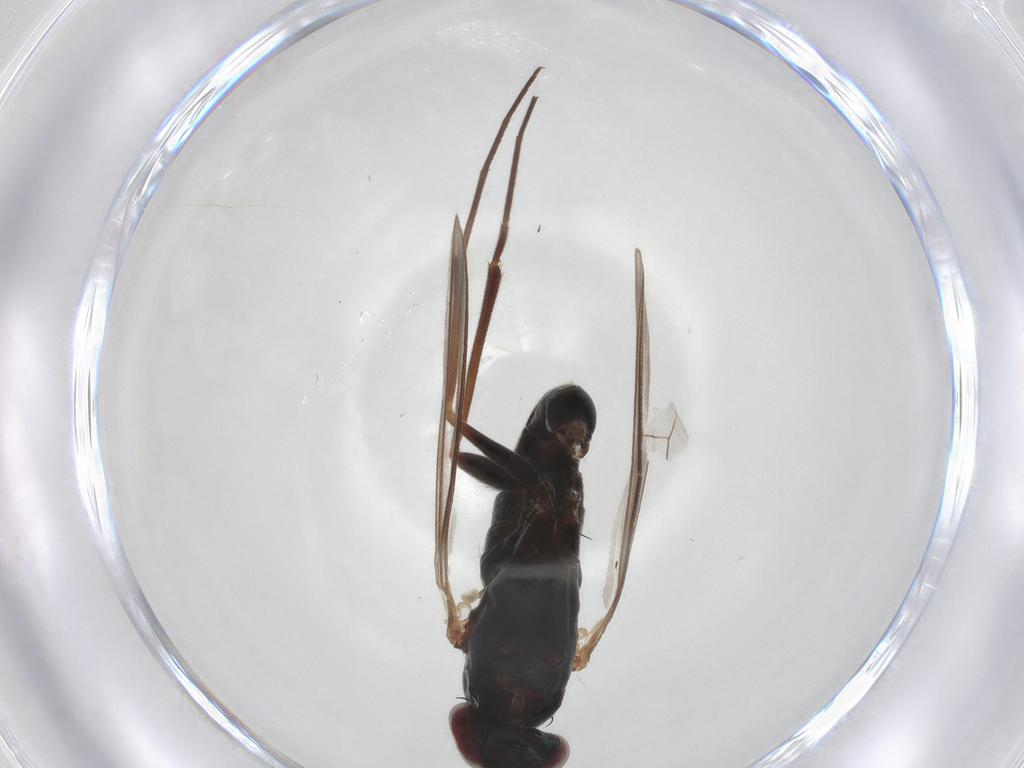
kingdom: Animalia
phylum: Arthropoda
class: Insecta
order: Diptera
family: Dolichopodidae
